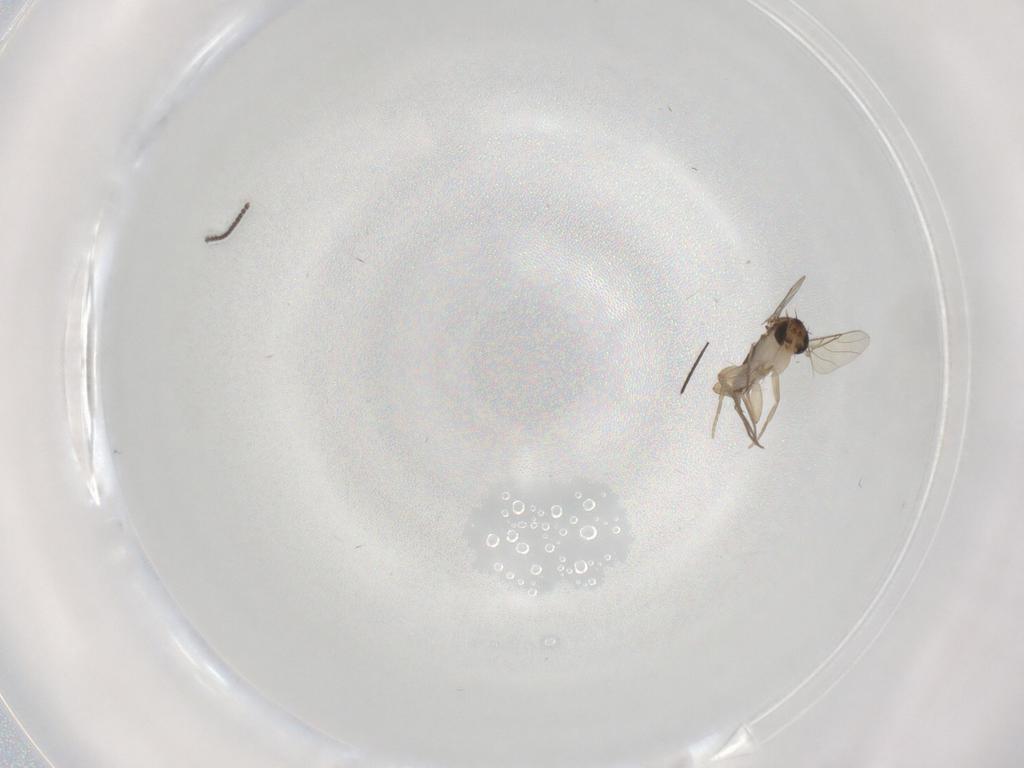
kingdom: Animalia
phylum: Arthropoda
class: Insecta
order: Diptera
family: Phoridae
